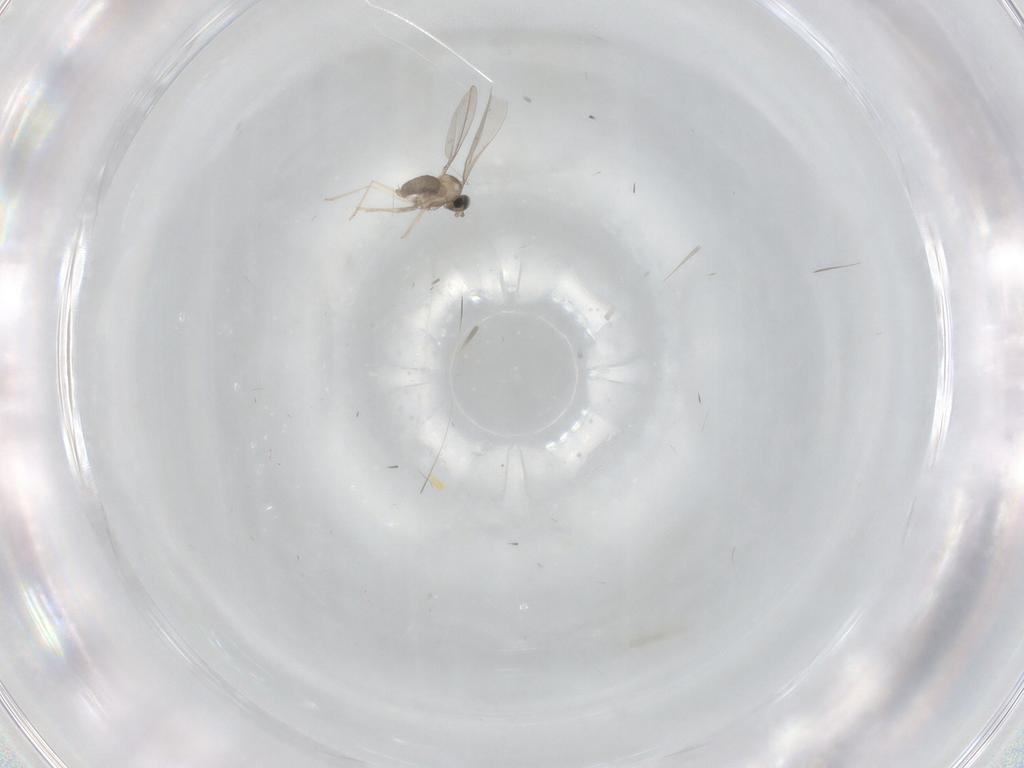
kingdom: Animalia
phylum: Arthropoda
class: Insecta
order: Diptera
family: Cecidomyiidae
